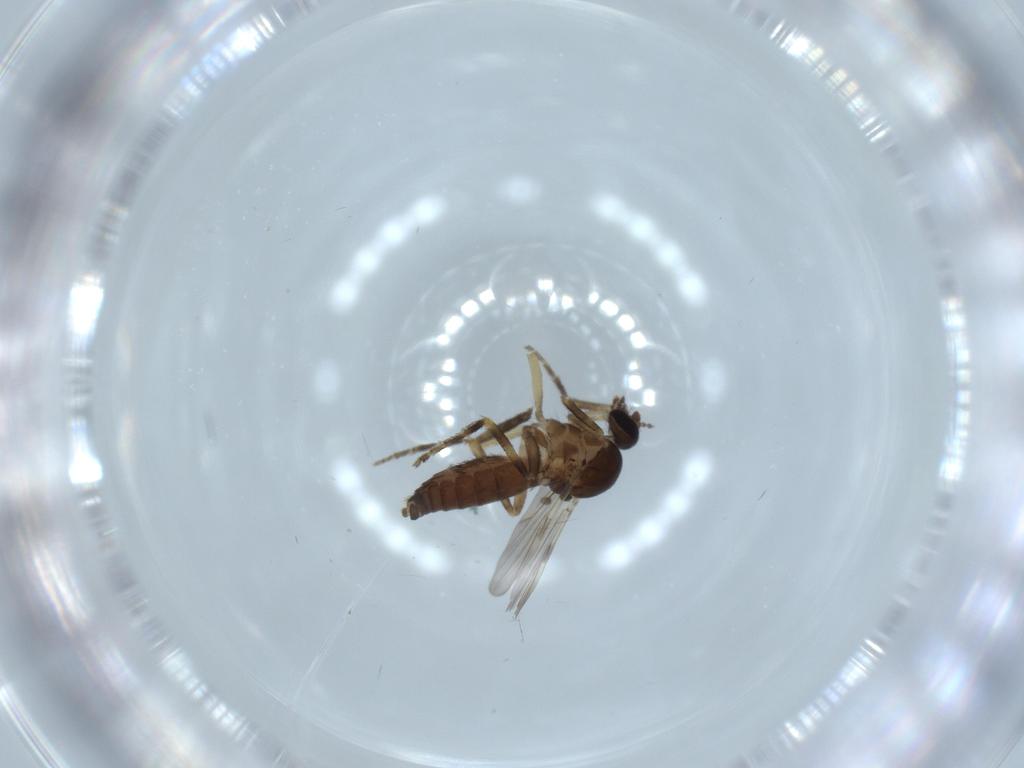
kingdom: Animalia
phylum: Arthropoda
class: Insecta
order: Diptera
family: Ceratopogonidae
